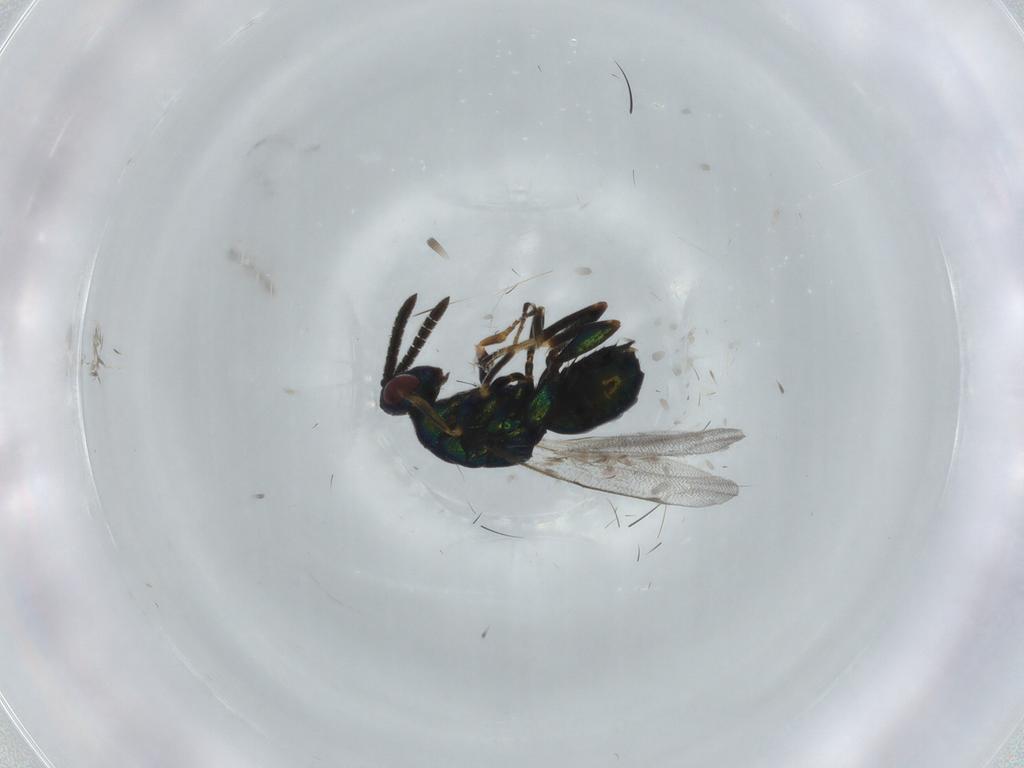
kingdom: Animalia
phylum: Arthropoda
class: Insecta
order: Hymenoptera
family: Torymidae
